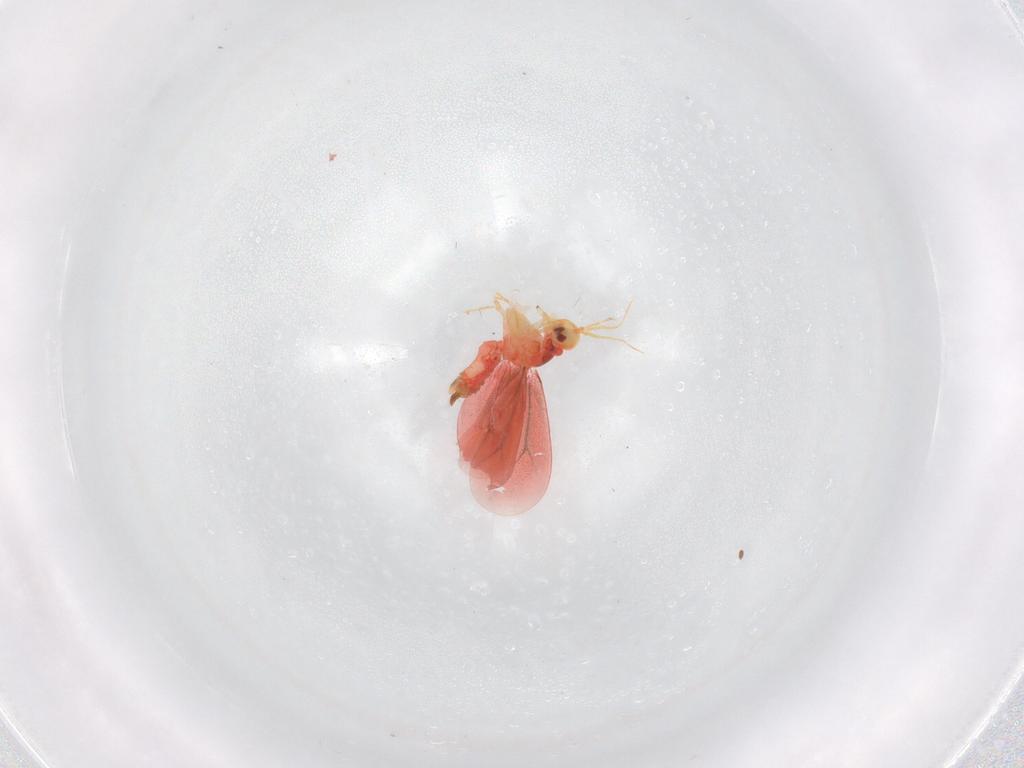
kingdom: Animalia
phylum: Arthropoda
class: Insecta
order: Hemiptera
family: Aleyrodidae
